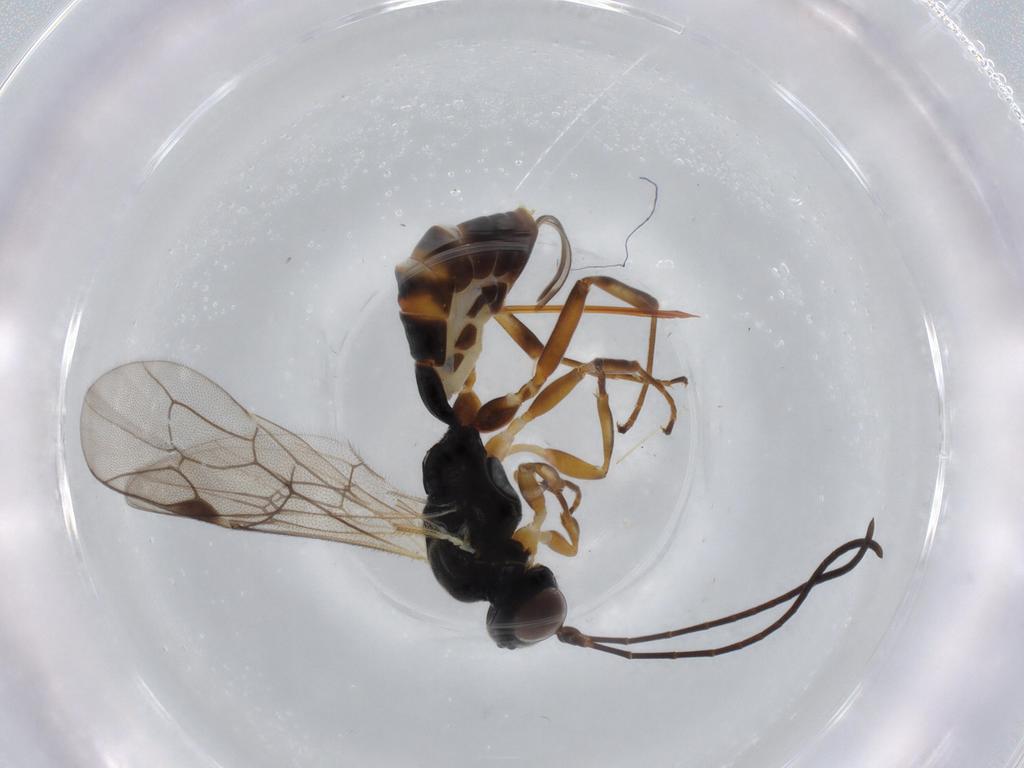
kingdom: Animalia
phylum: Arthropoda
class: Insecta
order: Hymenoptera
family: Ichneumonidae
